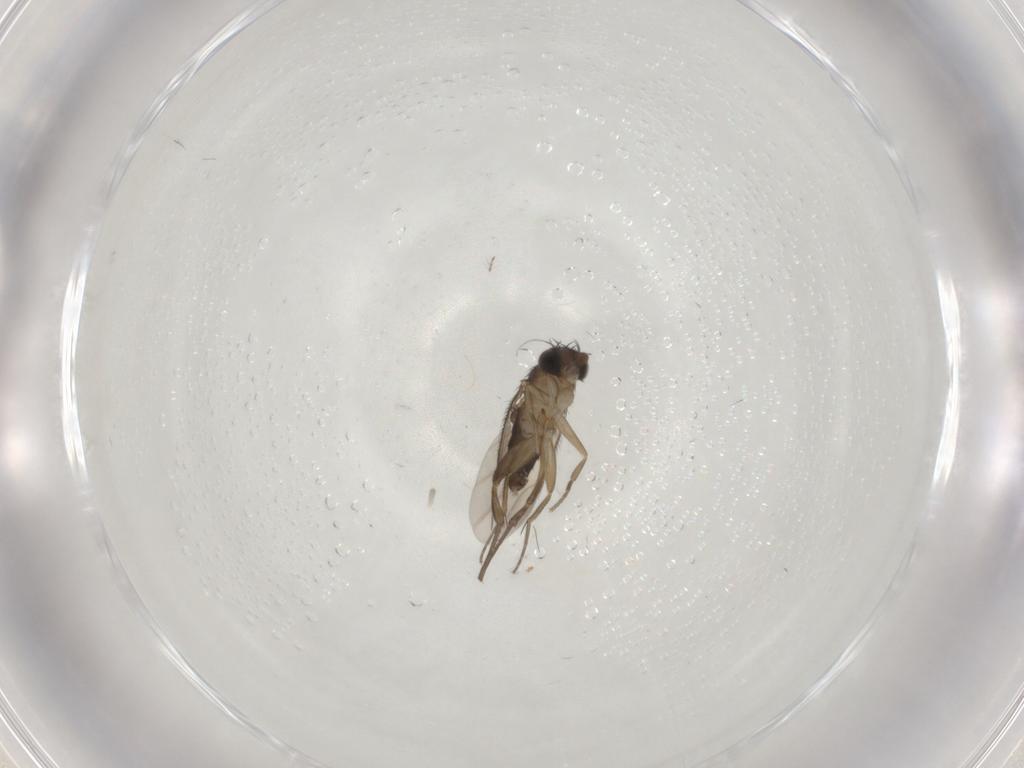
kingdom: Animalia
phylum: Arthropoda
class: Insecta
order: Diptera
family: Phoridae
